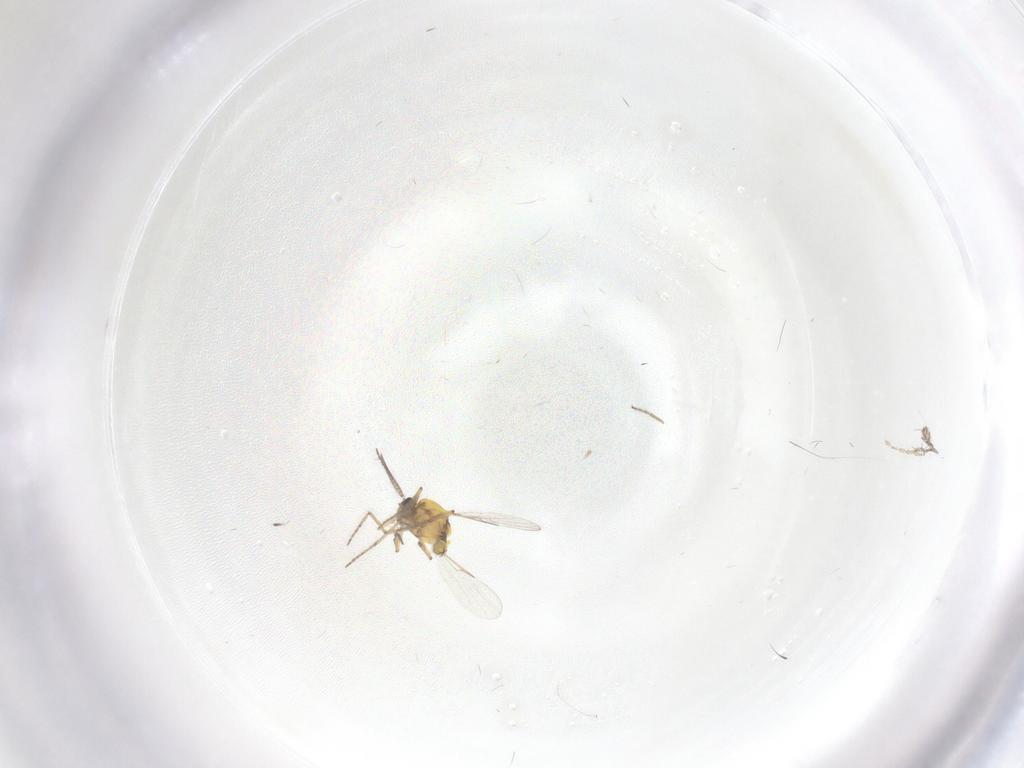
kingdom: Animalia
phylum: Arthropoda
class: Insecta
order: Diptera
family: Ceratopogonidae
